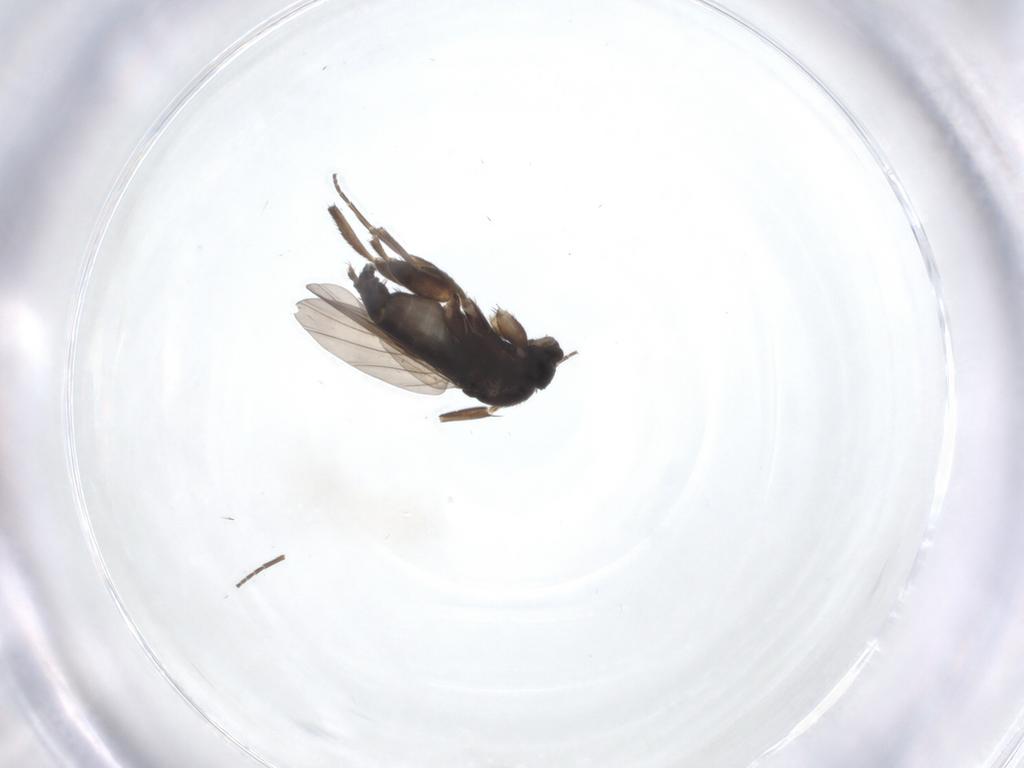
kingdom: Animalia
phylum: Arthropoda
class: Insecta
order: Diptera
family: Phoridae
